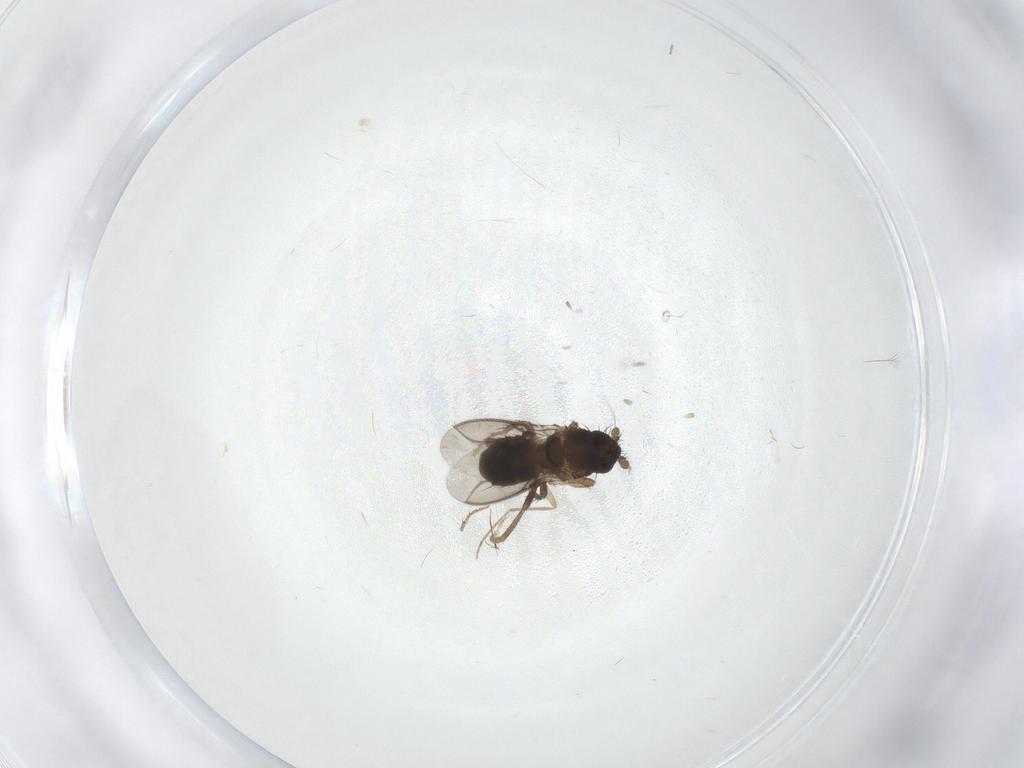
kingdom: Animalia
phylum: Arthropoda
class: Insecta
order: Diptera
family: Chironomidae
